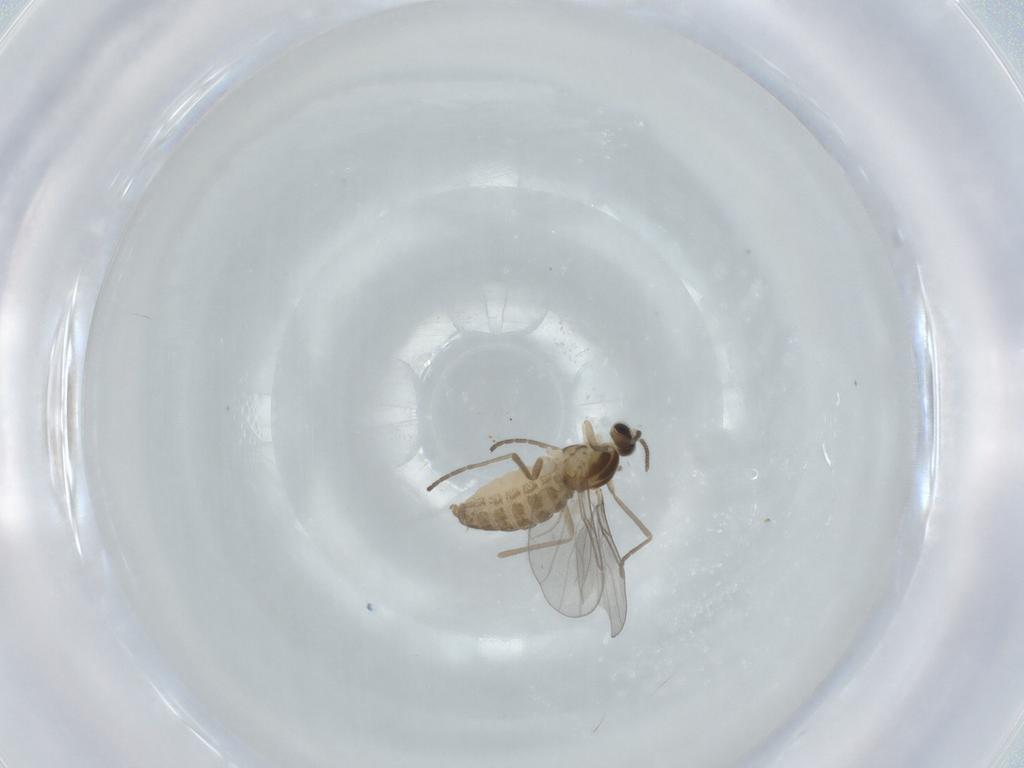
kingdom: Animalia
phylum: Arthropoda
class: Insecta
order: Diptera
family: Cecidomyiidae
